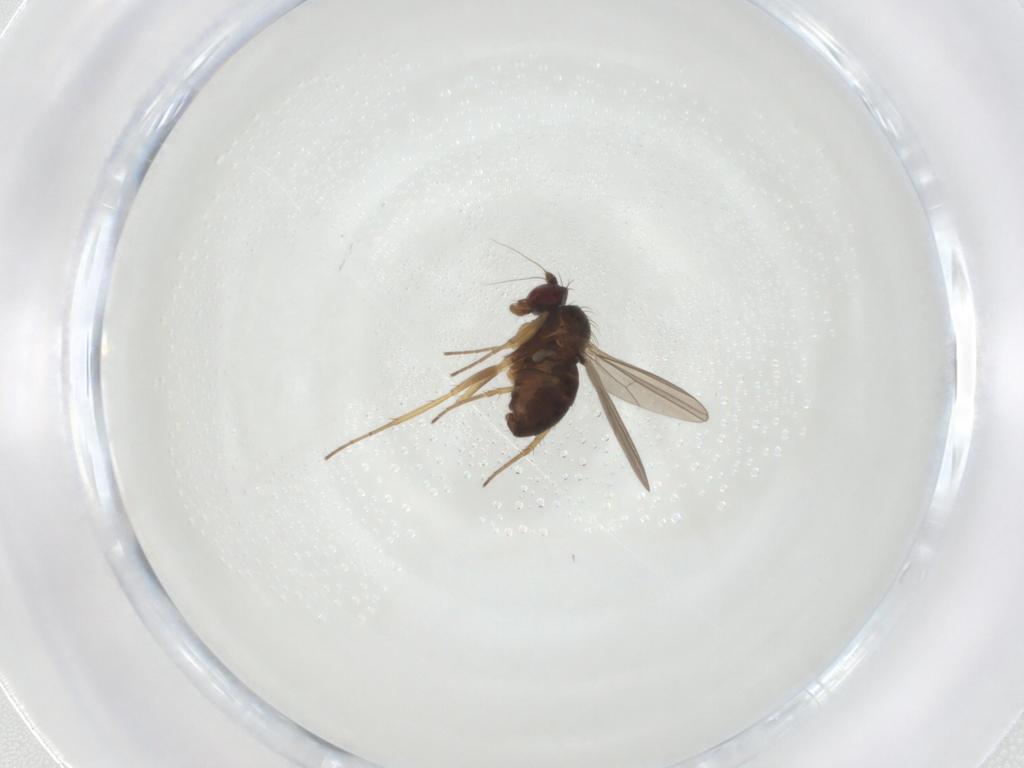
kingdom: Animalia
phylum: Arthropoda
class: Insecta
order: Diptera
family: Dolichopodidae
